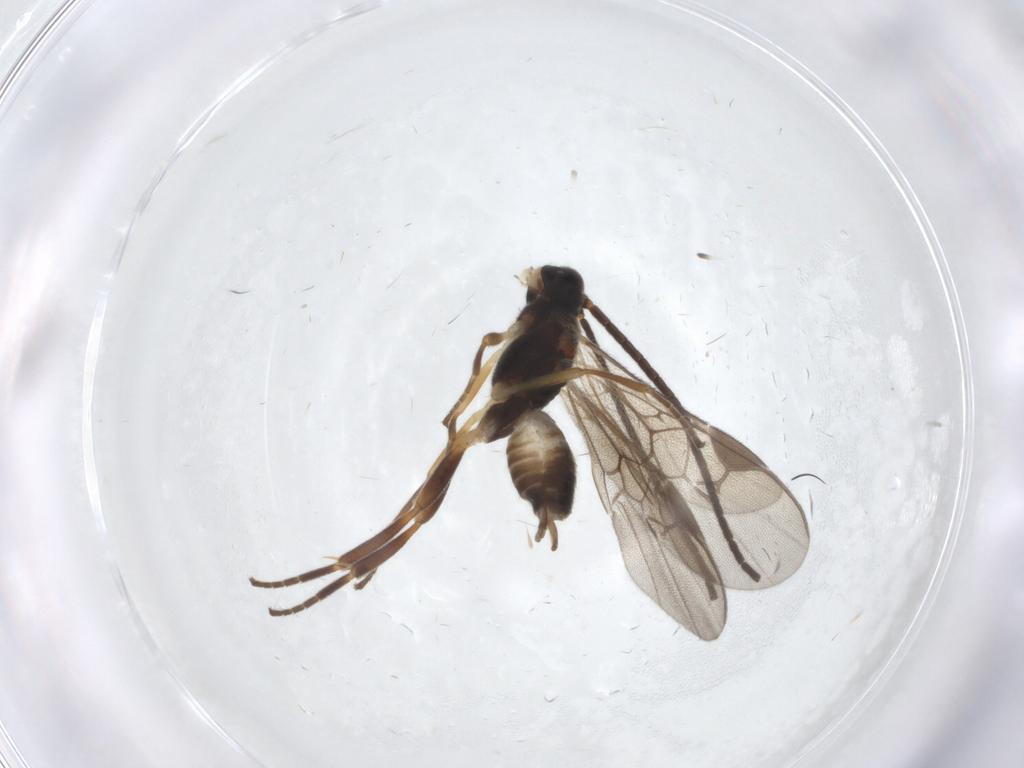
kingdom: Animalia
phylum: Arthropoda
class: Insecta
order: Hymenoptera
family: Braconidae
